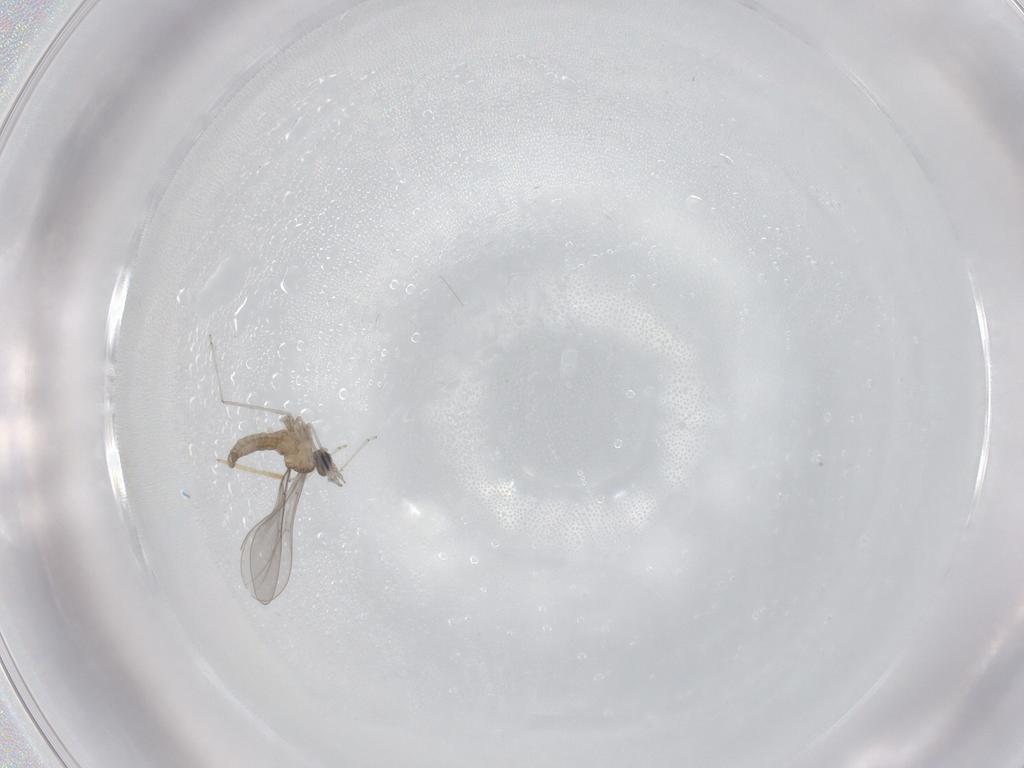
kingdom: Animalia
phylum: Arthropoda
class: Insecta
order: Diptera
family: Cecidomyiidae
